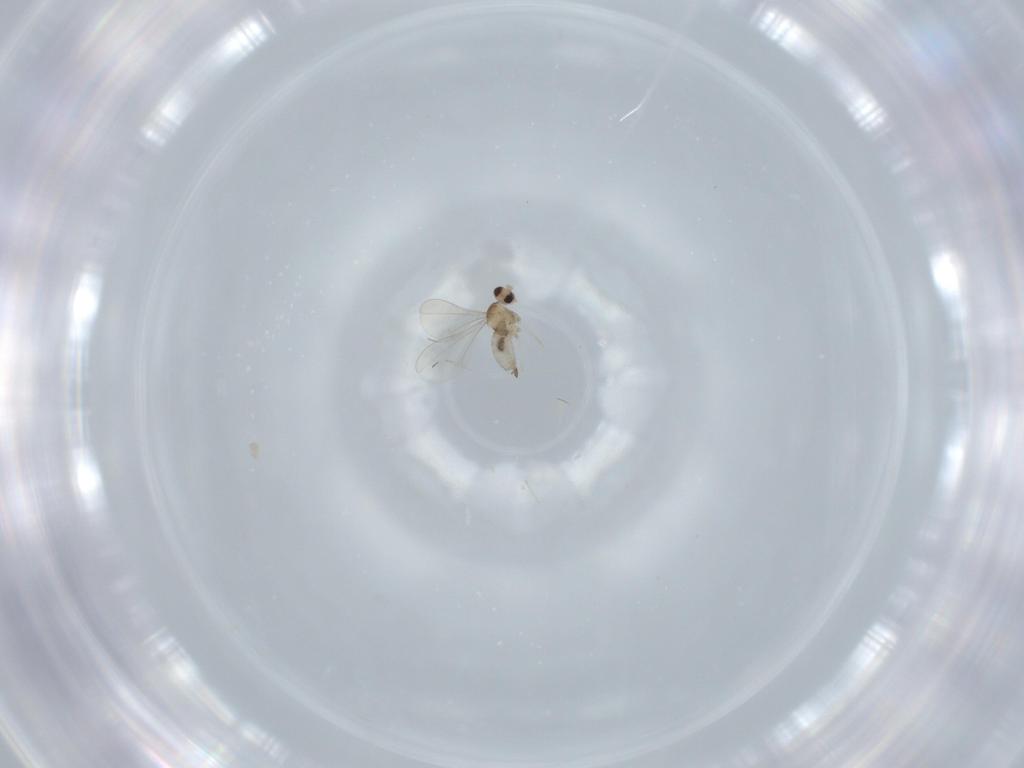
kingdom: Animalia
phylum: Arthropoda
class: Insecta
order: Diptera
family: Cecidomyiidae
